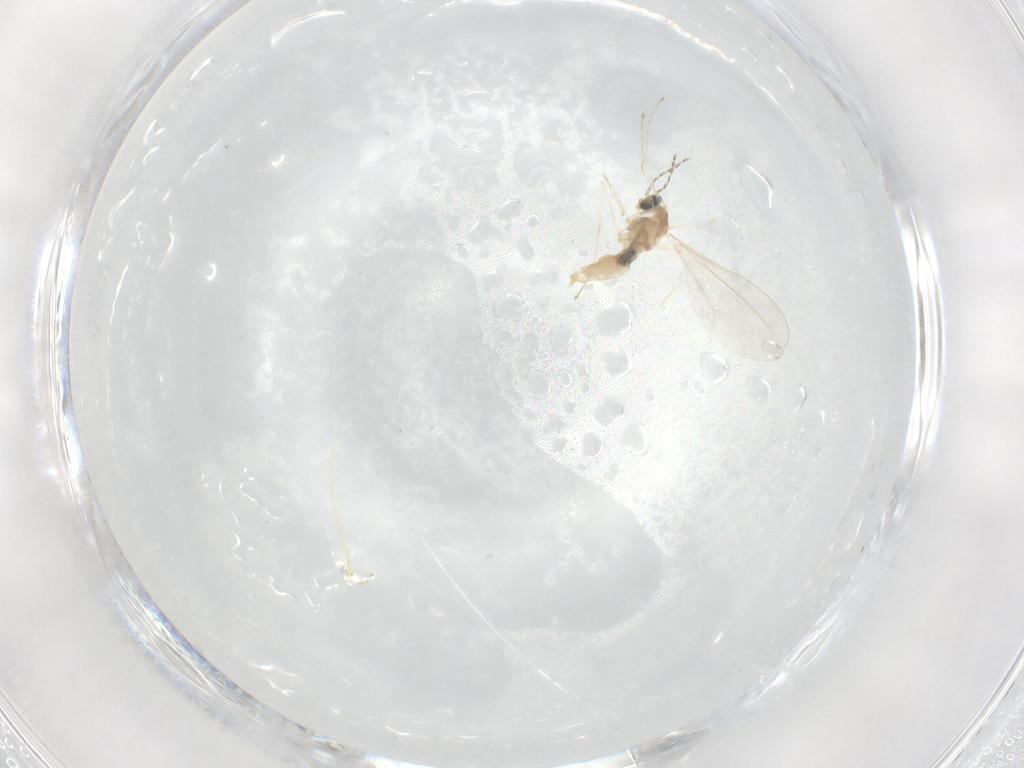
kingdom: Animalia
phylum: Arthropoda
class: Insecta
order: Diptera
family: Cecidomyiidae
